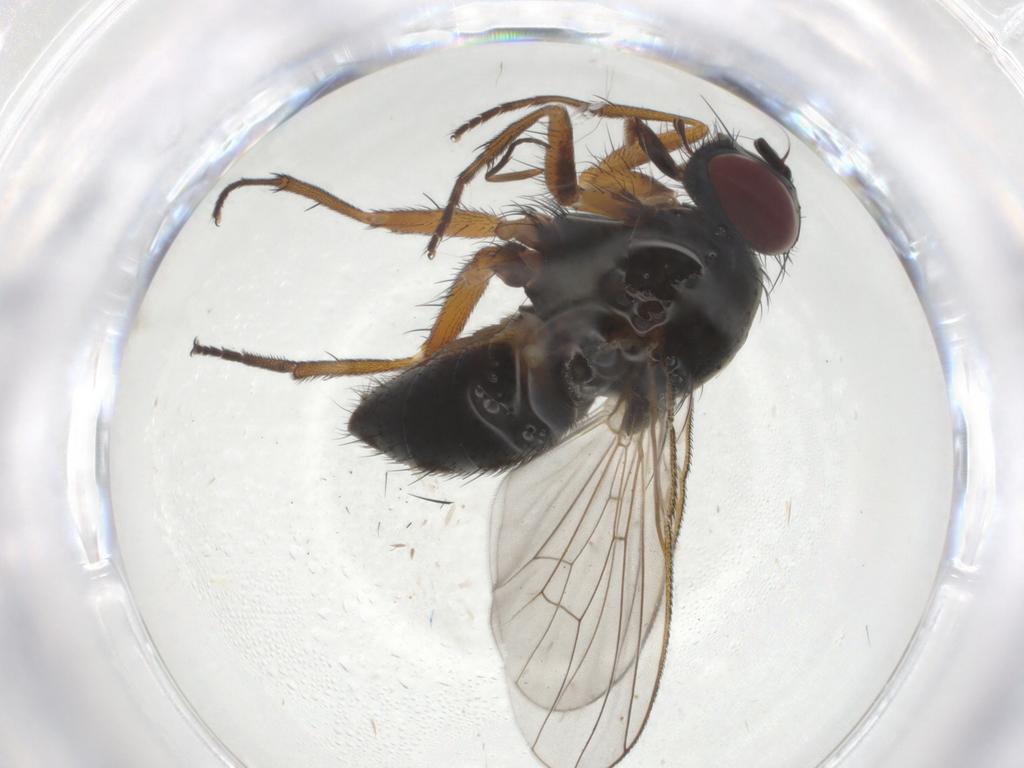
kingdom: Animalia
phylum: Arthropoda
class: Insecta
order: Diptera
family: Muscidae
